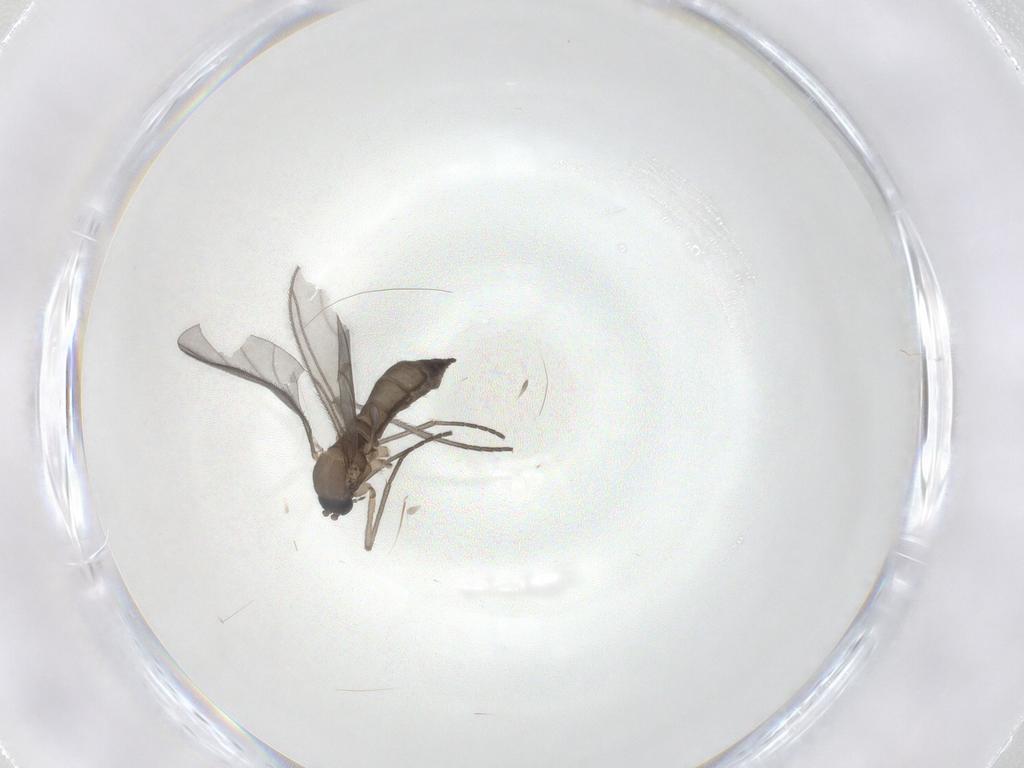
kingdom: Animalia
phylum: Arthropoda
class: Insecta
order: Diptera
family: Sciaridae
